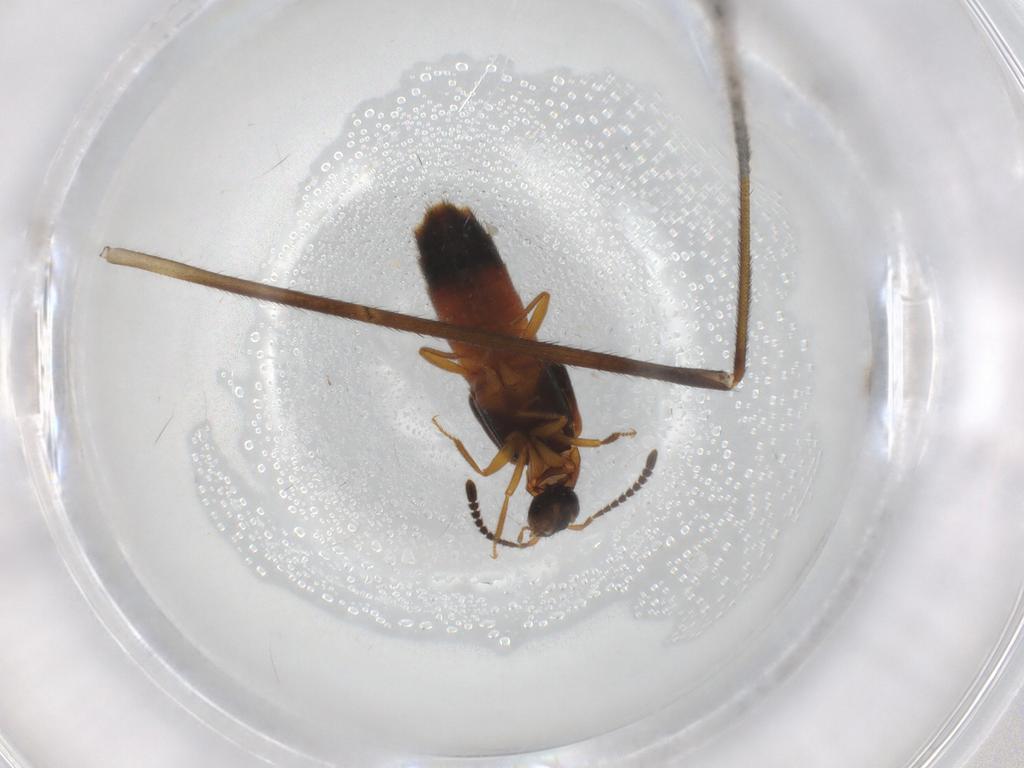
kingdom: Animalia
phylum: Arthropoda
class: Insecta
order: Coleoptera
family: Staphylinidae
